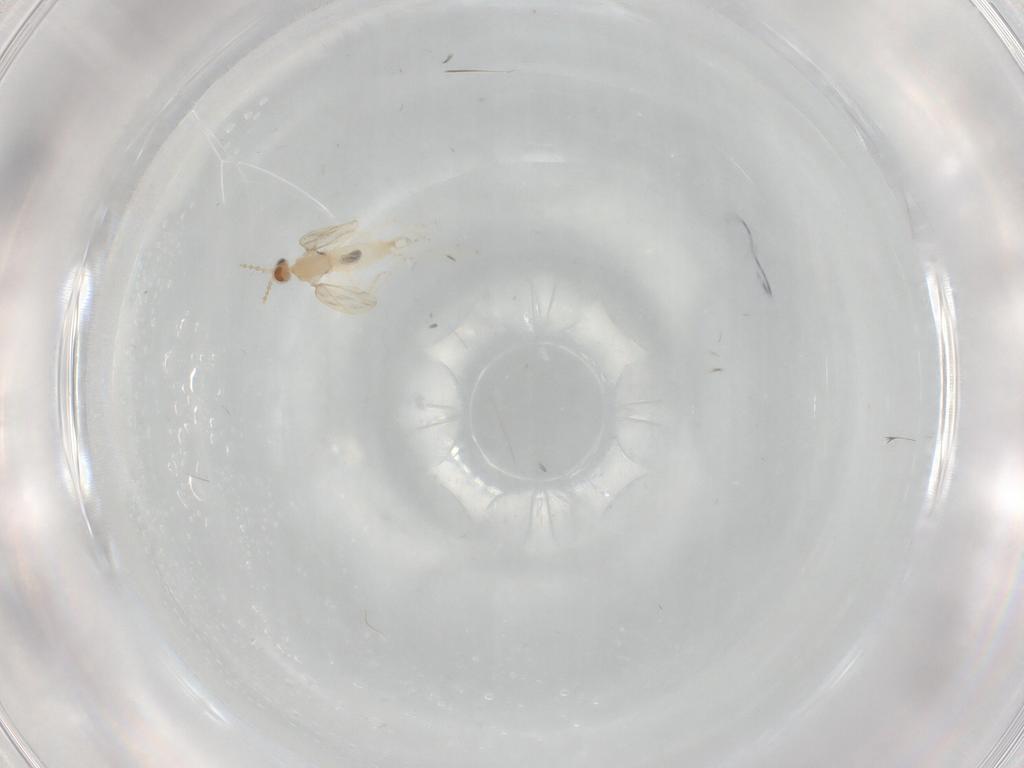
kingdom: Animalia
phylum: Arthropoda
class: Insecta
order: Diptera
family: Cecidomyiidae
